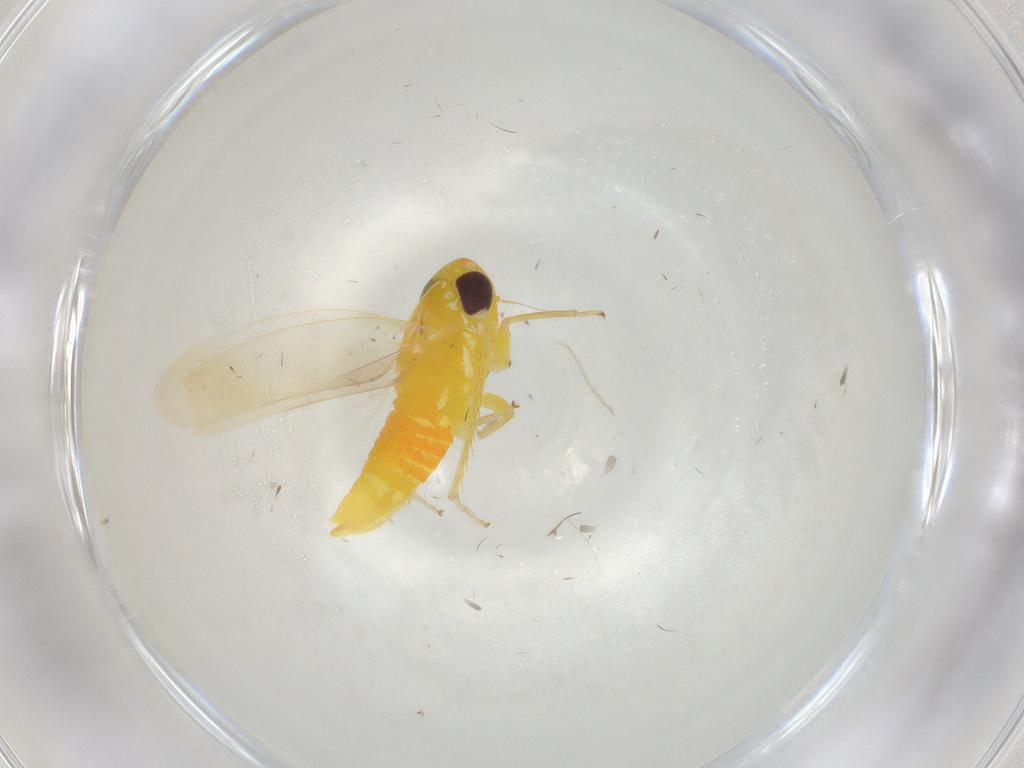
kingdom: Animalia
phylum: Arthropoda
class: Insecta
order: Hemiptera
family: Cicadellidae
